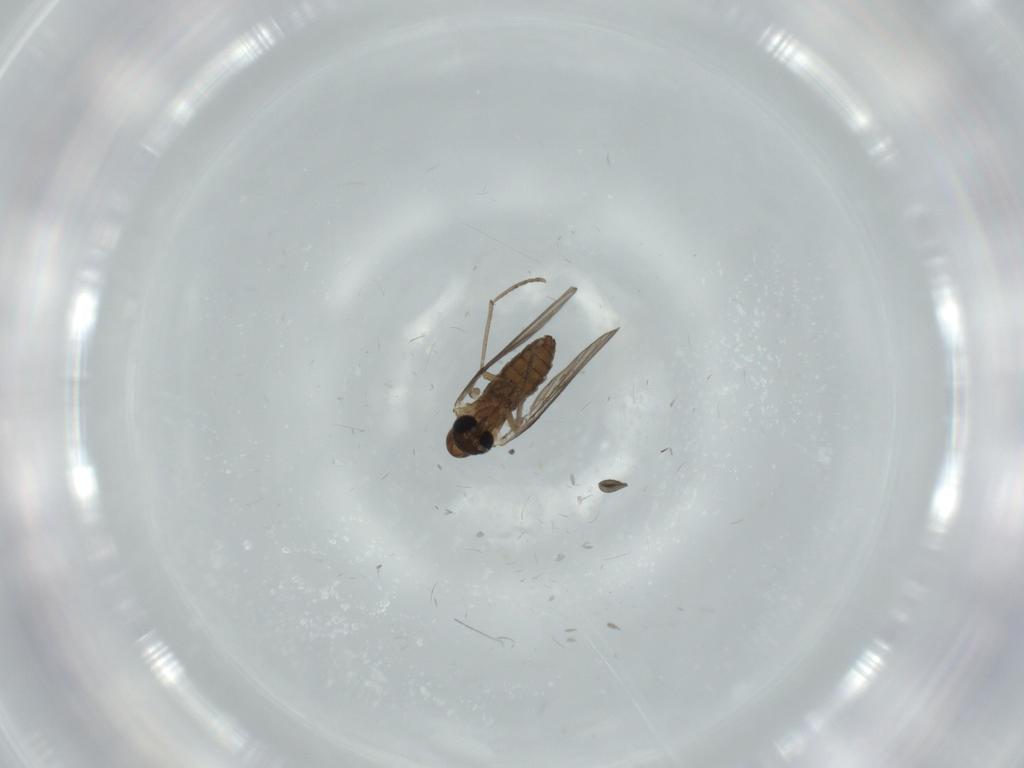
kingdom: Animalia
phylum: Arthropoda
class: Insecta
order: Diptera
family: Sciaridae
